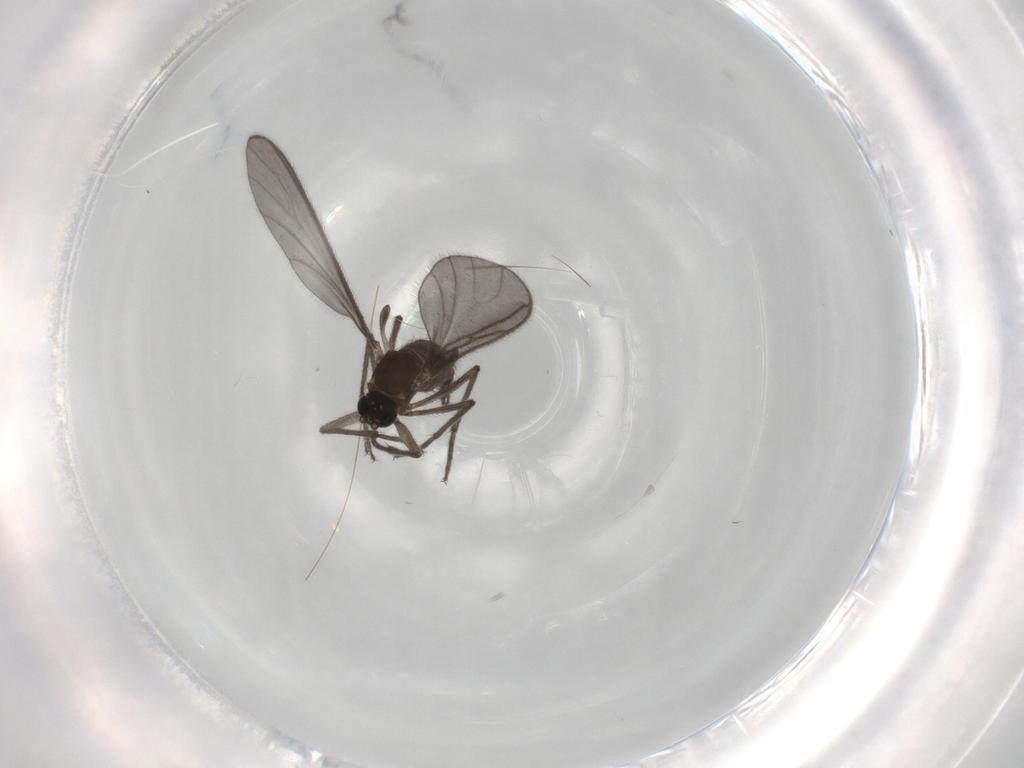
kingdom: Animalia
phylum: Arthropoda
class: Insecta
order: Diptera
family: Sciaridae
